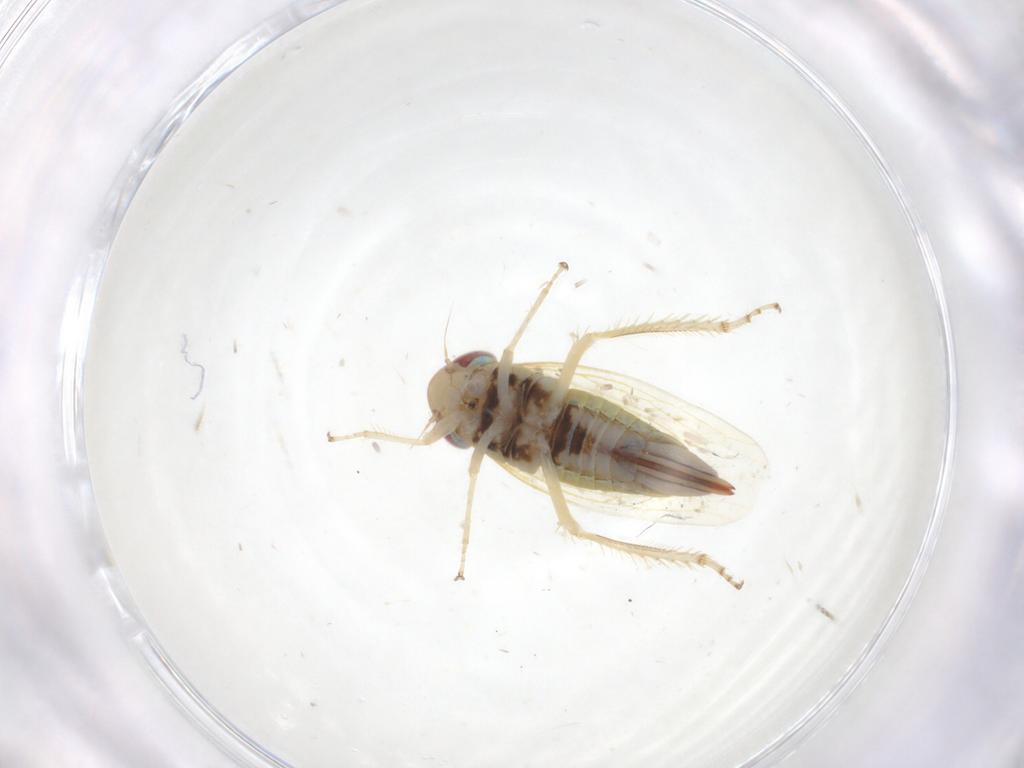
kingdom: Animalia
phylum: Arthropoda
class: Insecta
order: Hemiptera
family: Cicadellidae
